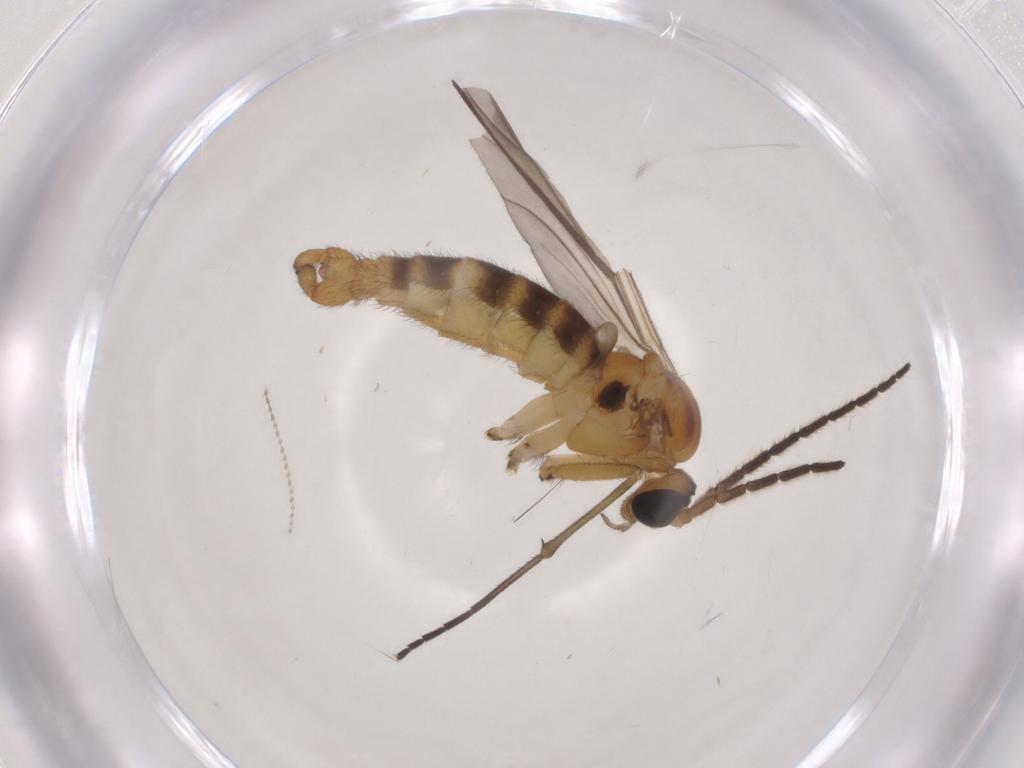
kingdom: Animalia
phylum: Arthropoda
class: Insecta
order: Diptera
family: Sciaridae
